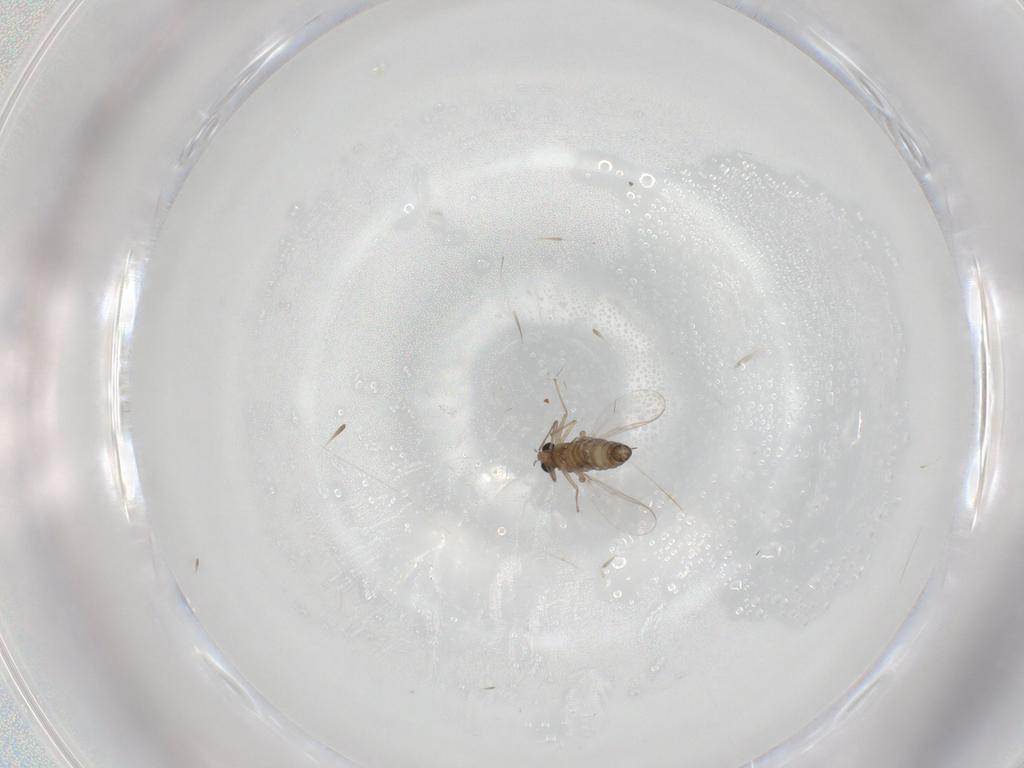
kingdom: Animalia
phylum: Arthropoda
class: Insecta
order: Diptera
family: Chironomidae
